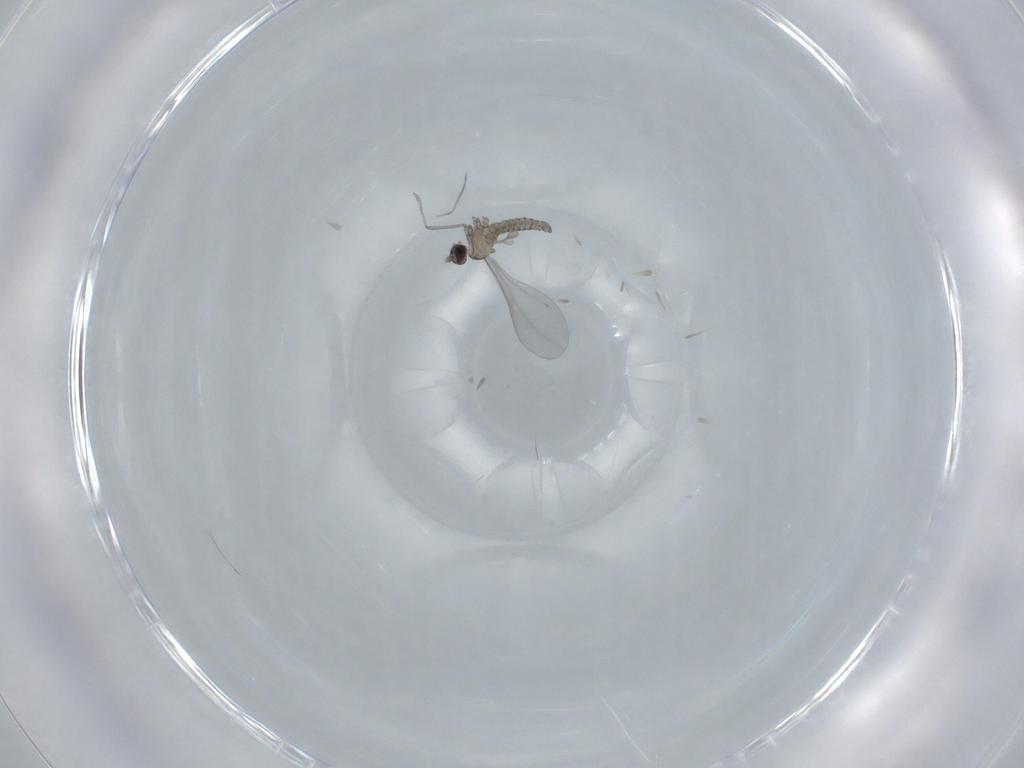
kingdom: Animalia
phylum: Arthropoda
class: Insecta
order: Diptera
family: Cecidomyiidae
